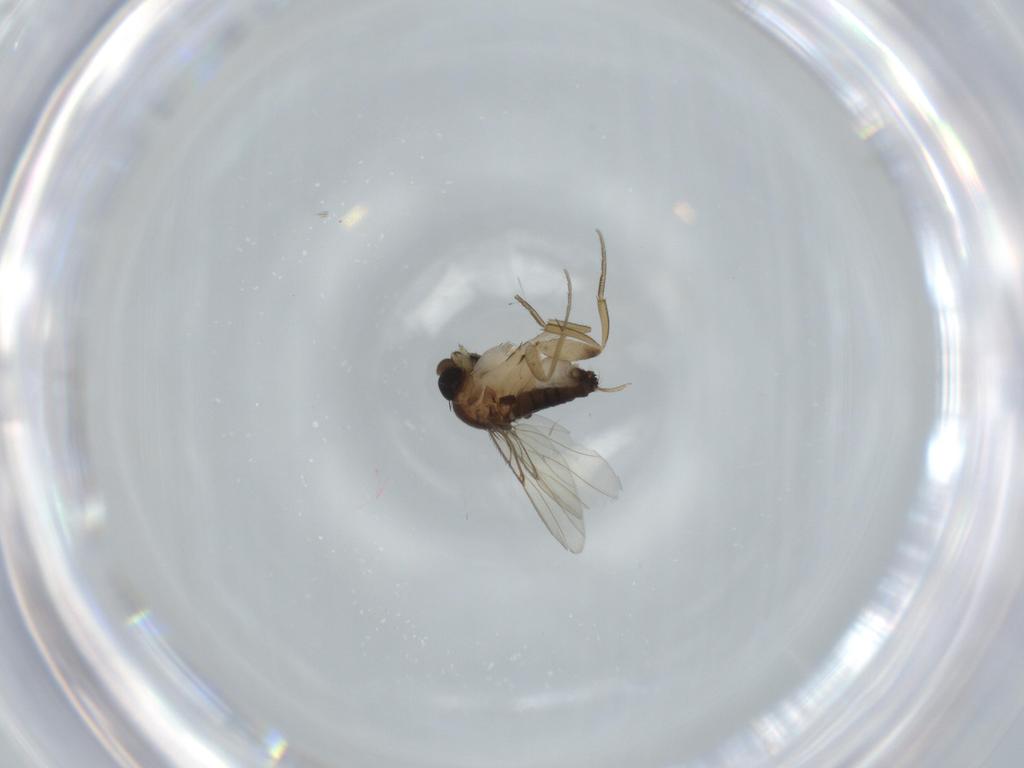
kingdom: Animalia
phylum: Arthropoda
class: Insecta
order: Diptera
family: Phoridae
